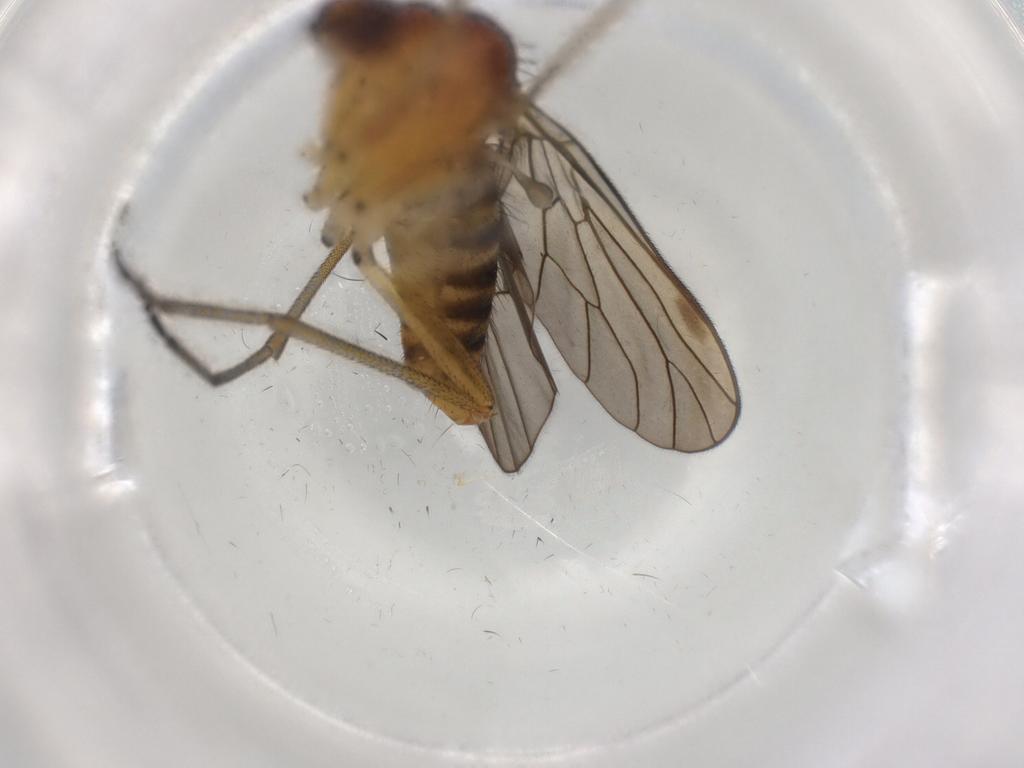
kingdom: Animalia
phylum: Arthropoda
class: Insecta
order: Diptera
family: Brachystomatidae
